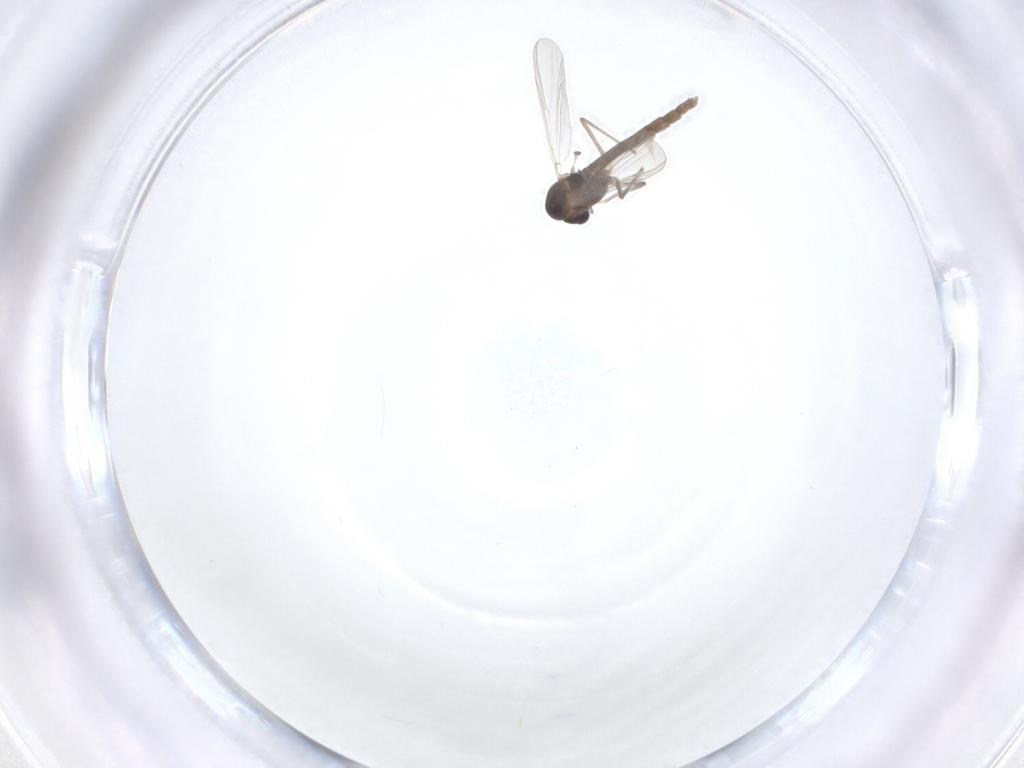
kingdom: Animalia
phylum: Arthropoda
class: Insecta
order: Diptera
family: Chironomidae
